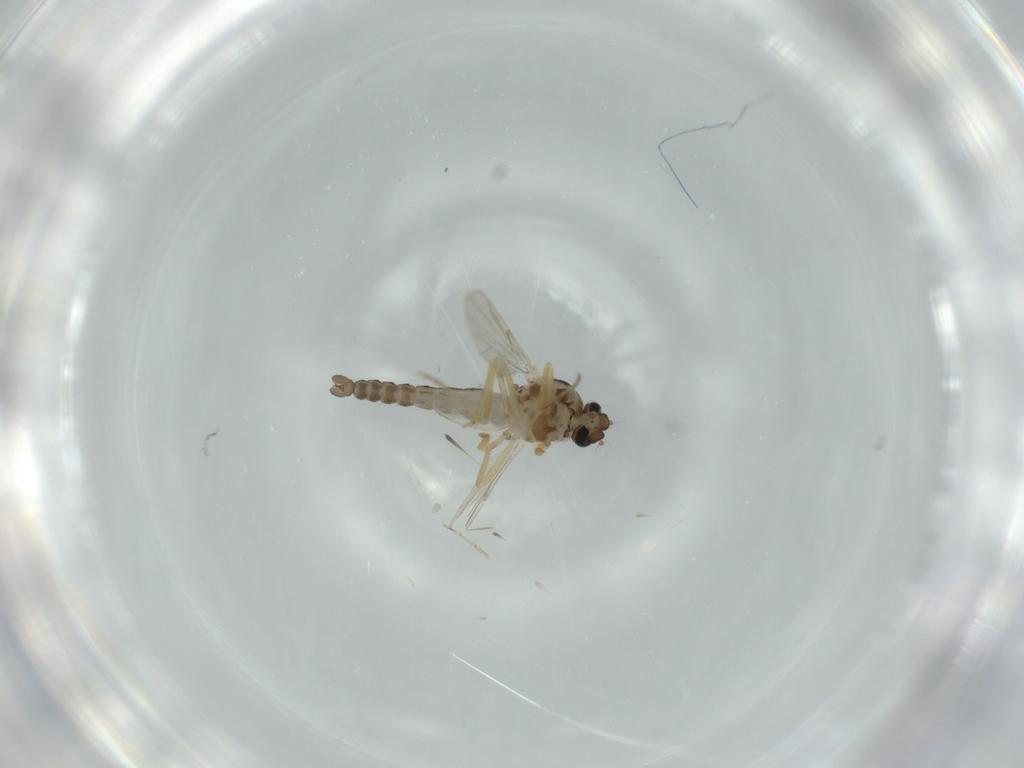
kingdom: Animalia
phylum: Arthropoda
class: Insecta
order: Diptera
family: Ceratopogonidae
